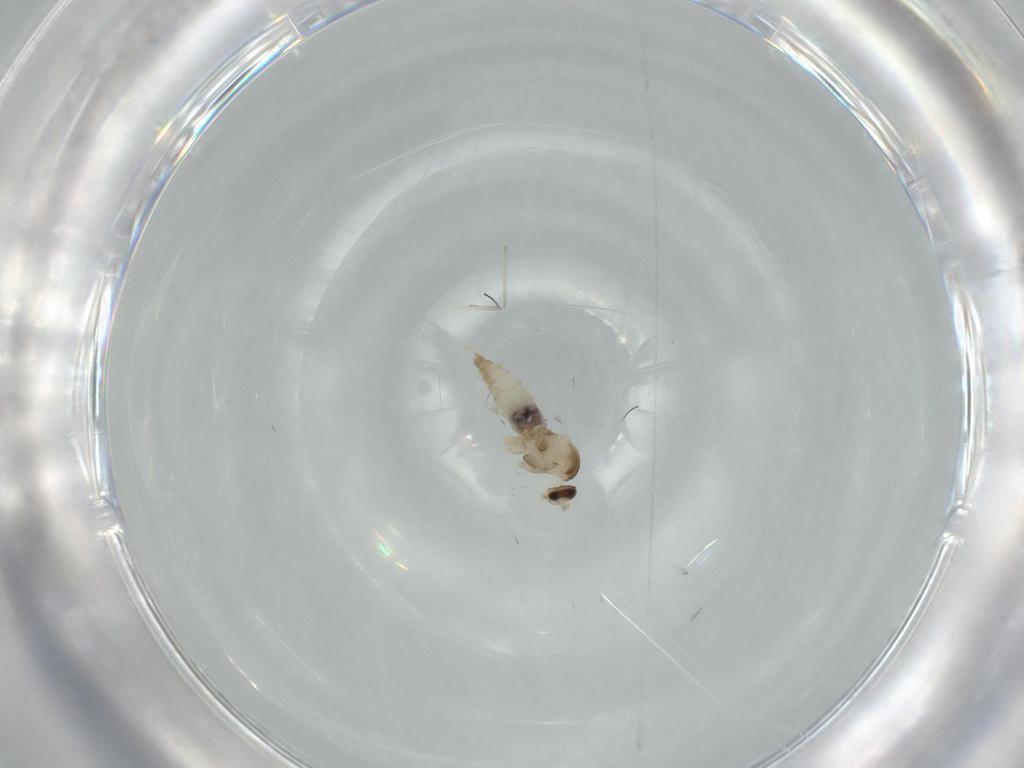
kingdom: Animalia
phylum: Arthropoda
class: Insecta
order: Diptera
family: Cecidomyiidae
